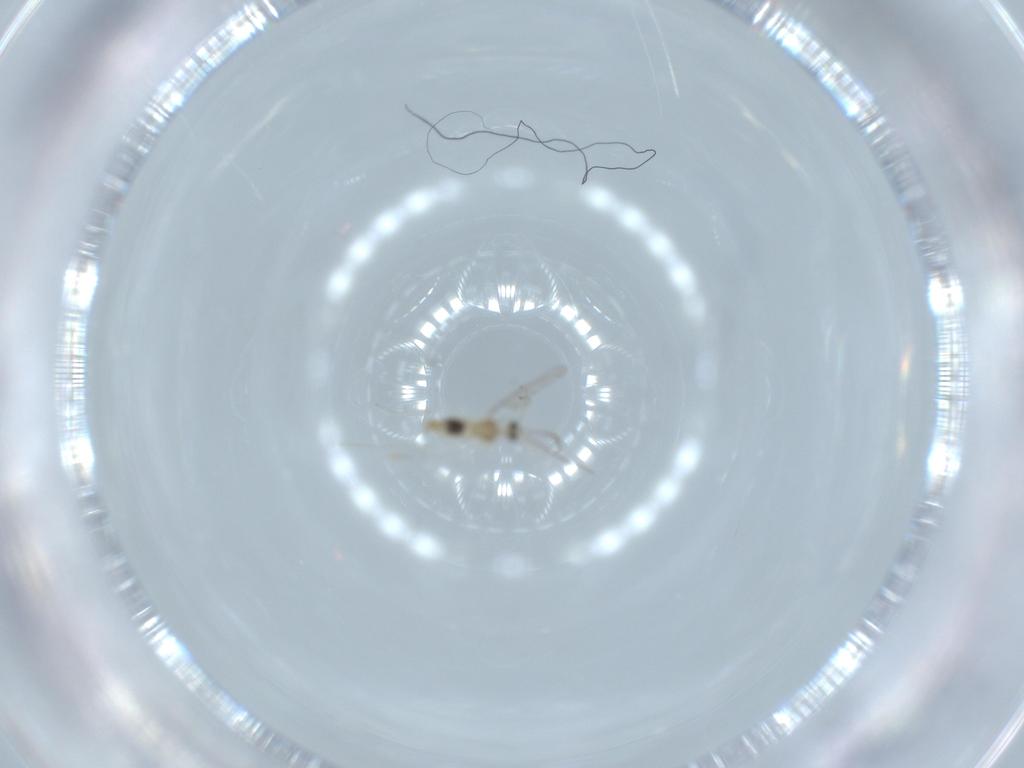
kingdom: Animalia
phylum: Arthropoda
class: Insecta
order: Diptera
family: Cecidomyiidae
